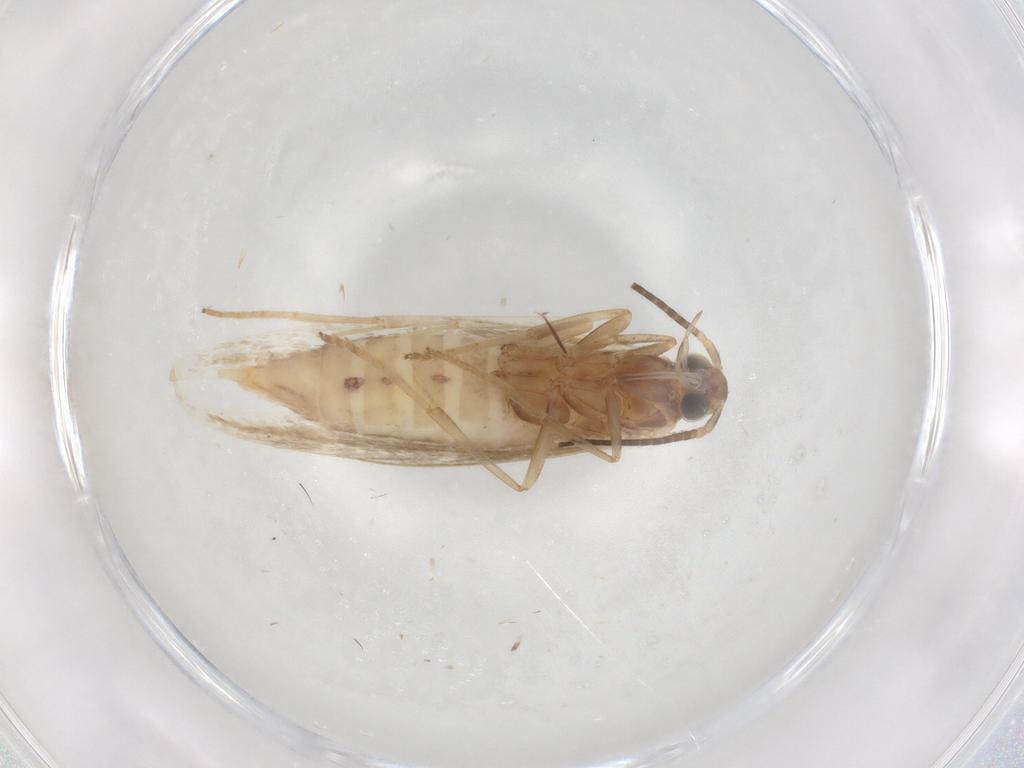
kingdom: Animalia
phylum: Arthropoda
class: Insecta
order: Lepidoptera
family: Coleophoridae
